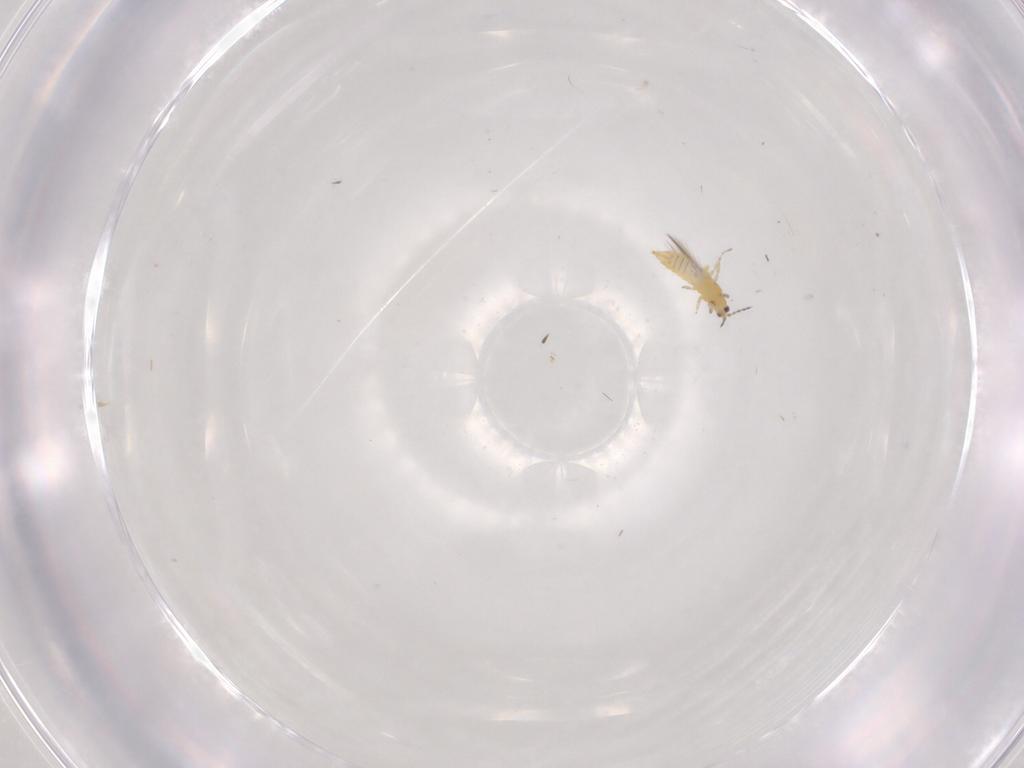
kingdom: Animalia
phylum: Arthropoda
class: Insecta
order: Thysanoptera
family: Thripidae
